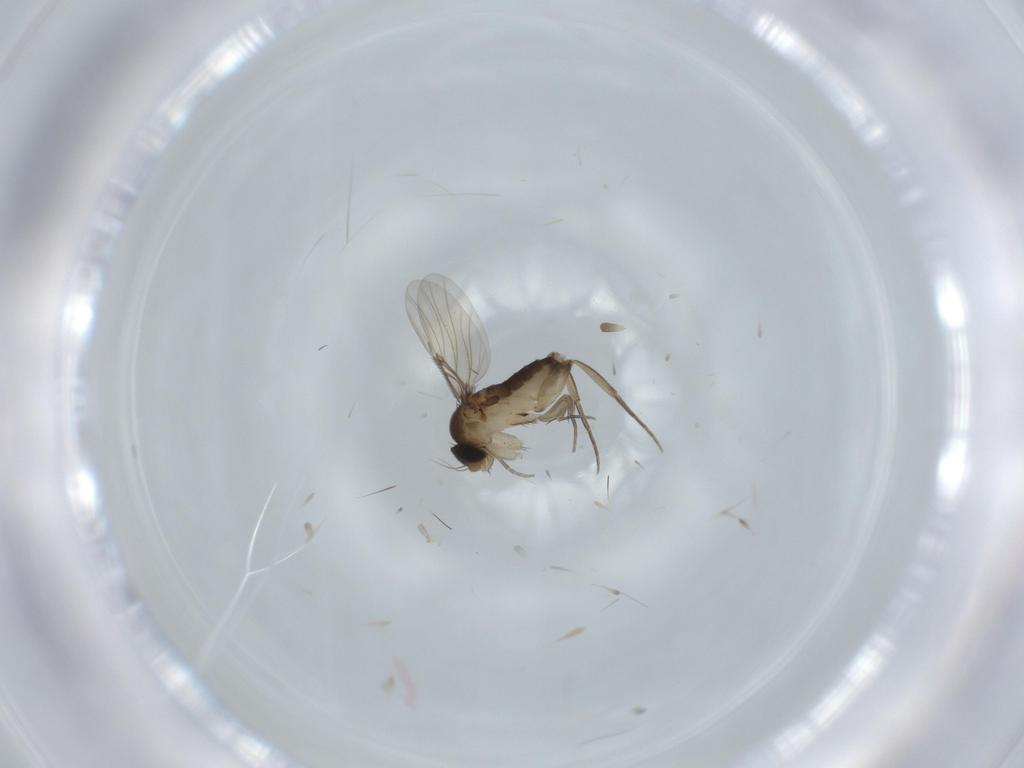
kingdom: Animalia
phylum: Arthropoda
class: Insecta
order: Diptera
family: Phoridae
